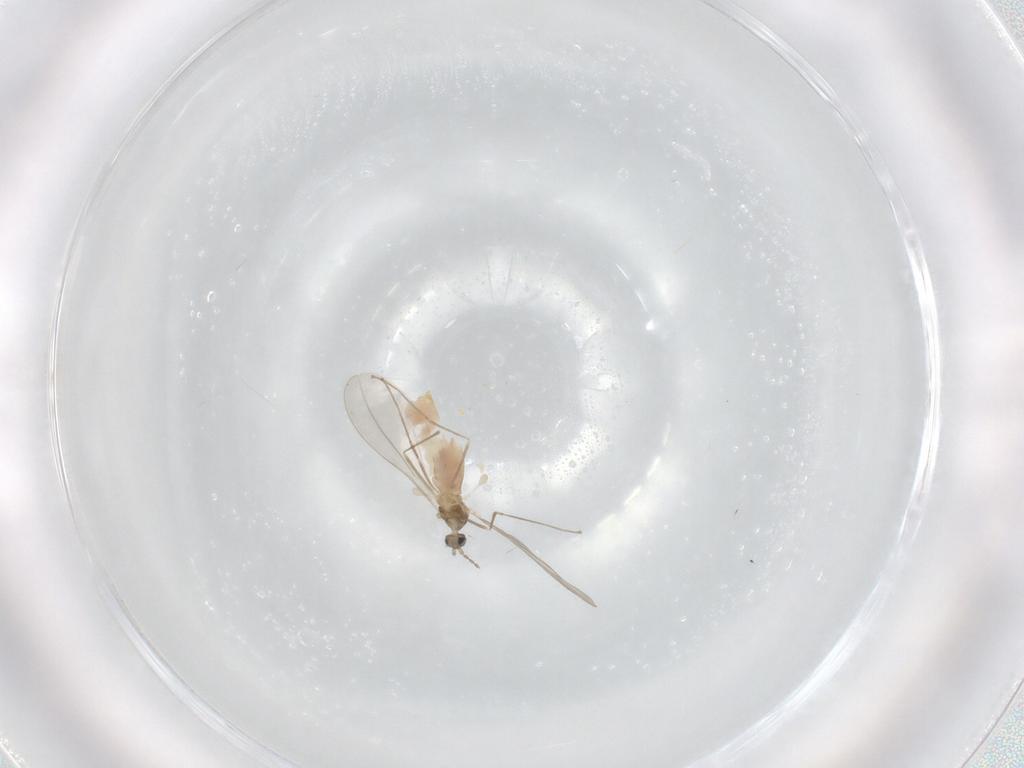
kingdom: Animalia
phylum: Arthropoda
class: Insecta
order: Diptera
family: Cecidomyiidae
